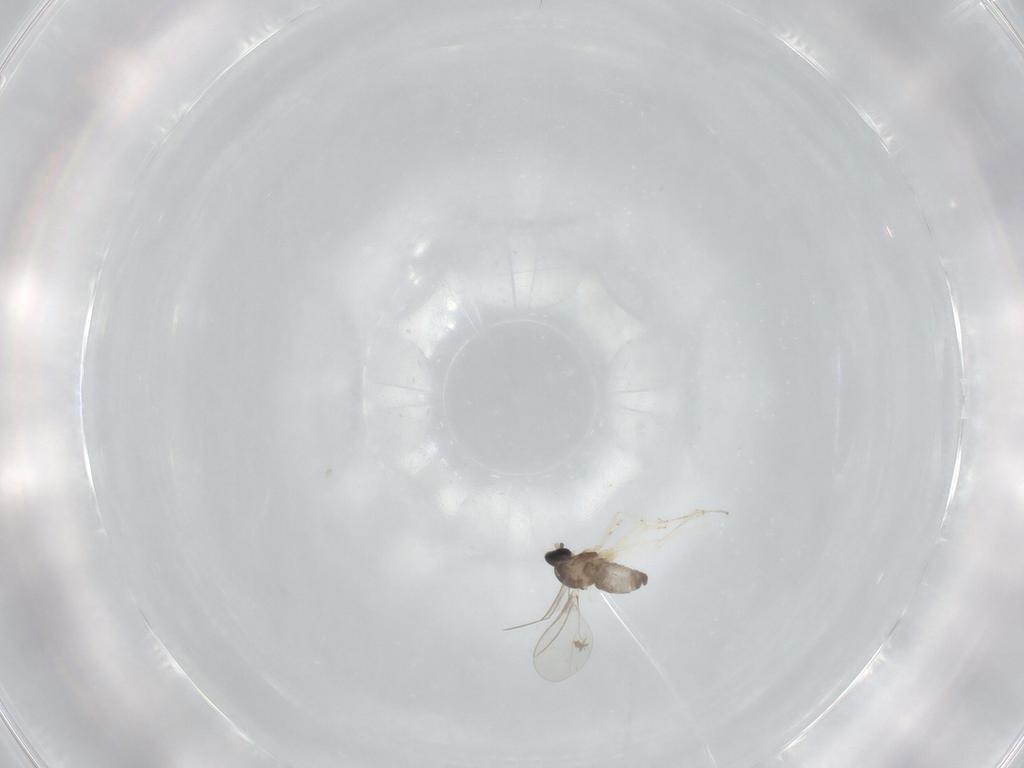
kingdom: Animalia
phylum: Arthropoda
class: Insecta
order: Diptera
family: Cecidomyiidae
